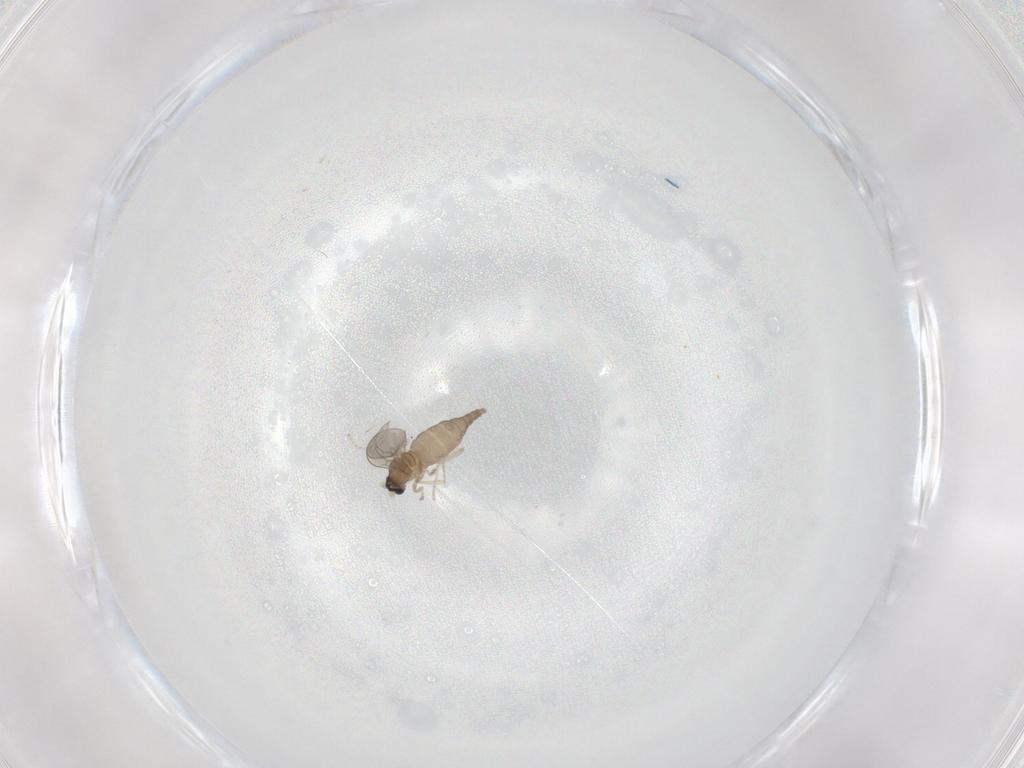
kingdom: Animalia
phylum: Arthropoda
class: Insecta
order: Diptera
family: Cecidomyiidae
